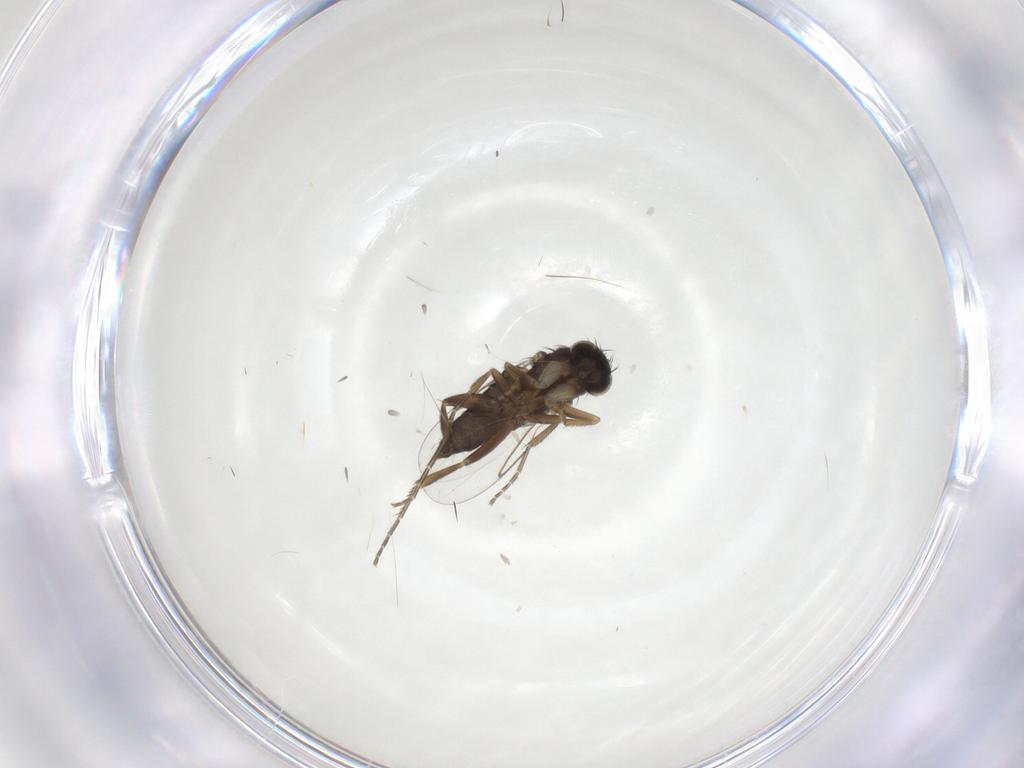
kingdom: Animalia
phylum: Arthropoda
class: Insecta
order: Diptera
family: Phoridae
